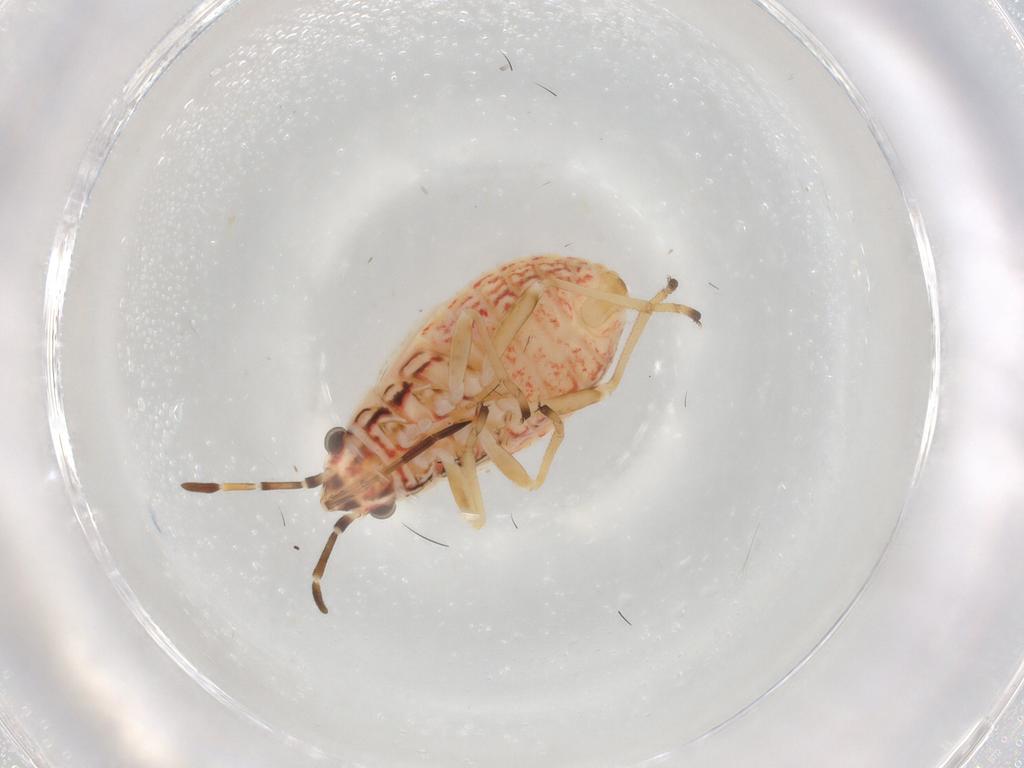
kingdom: Animalia
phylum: Arthropoda
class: Insecta
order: Hemiptera
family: Lygaeidae
